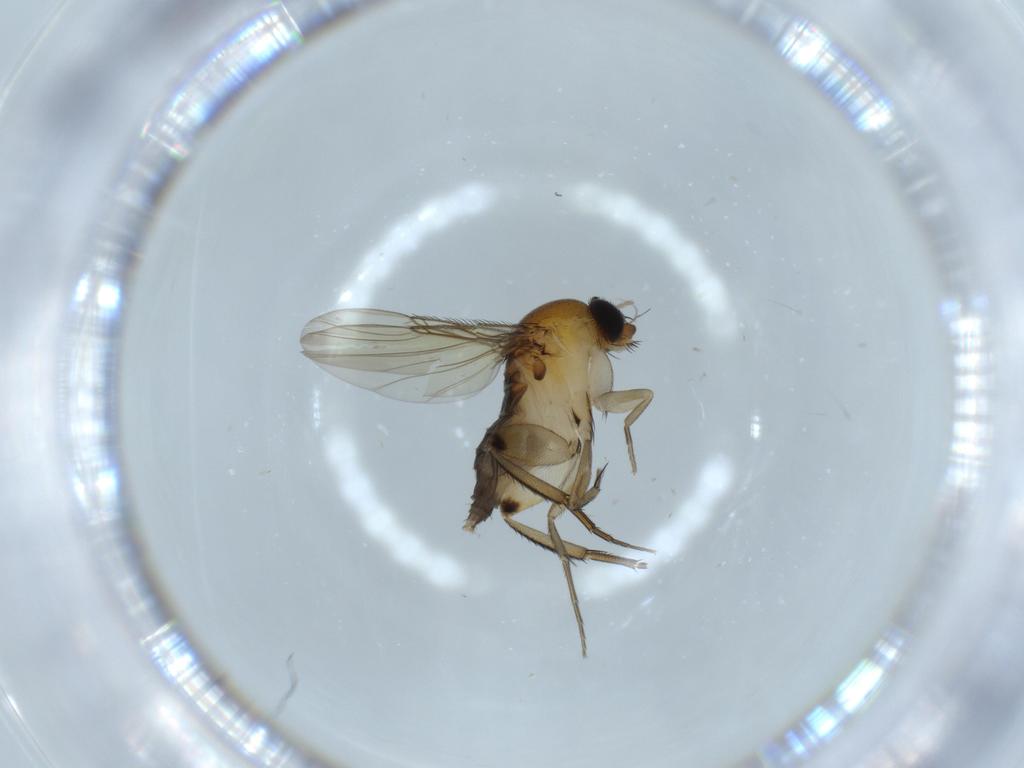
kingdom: Animalia
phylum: Arthropoda
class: Insecta
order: Diptera
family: Phoridae
